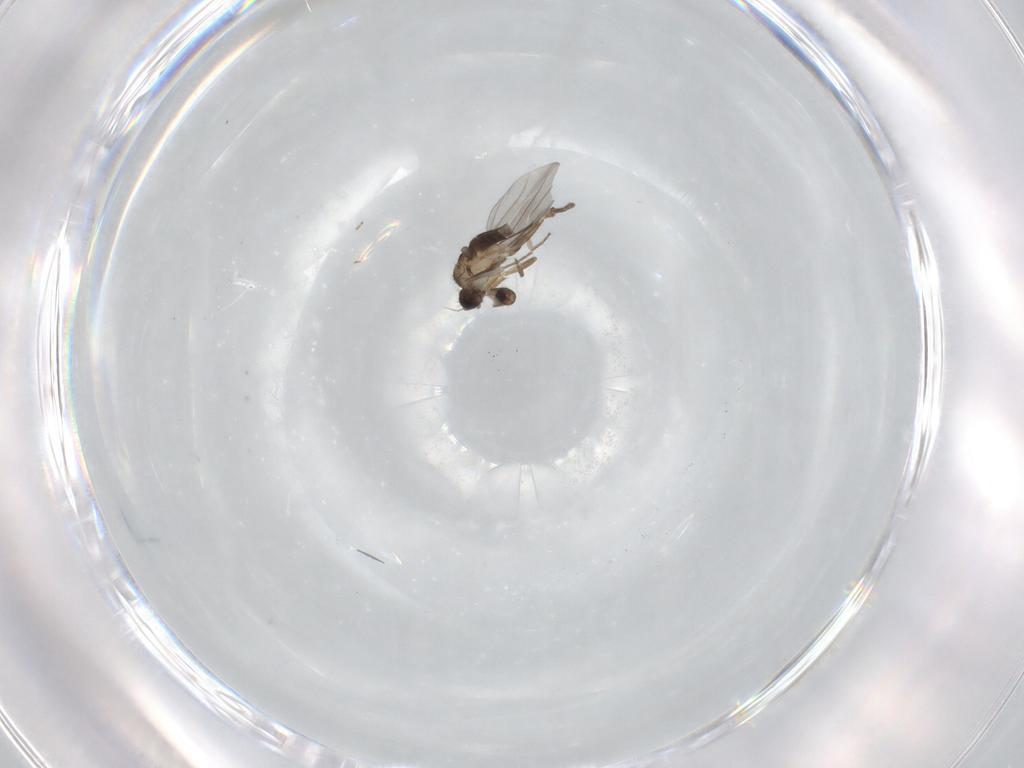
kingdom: Animalia
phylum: Arthropoda
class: Insecta
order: Diptera
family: Phoridae
